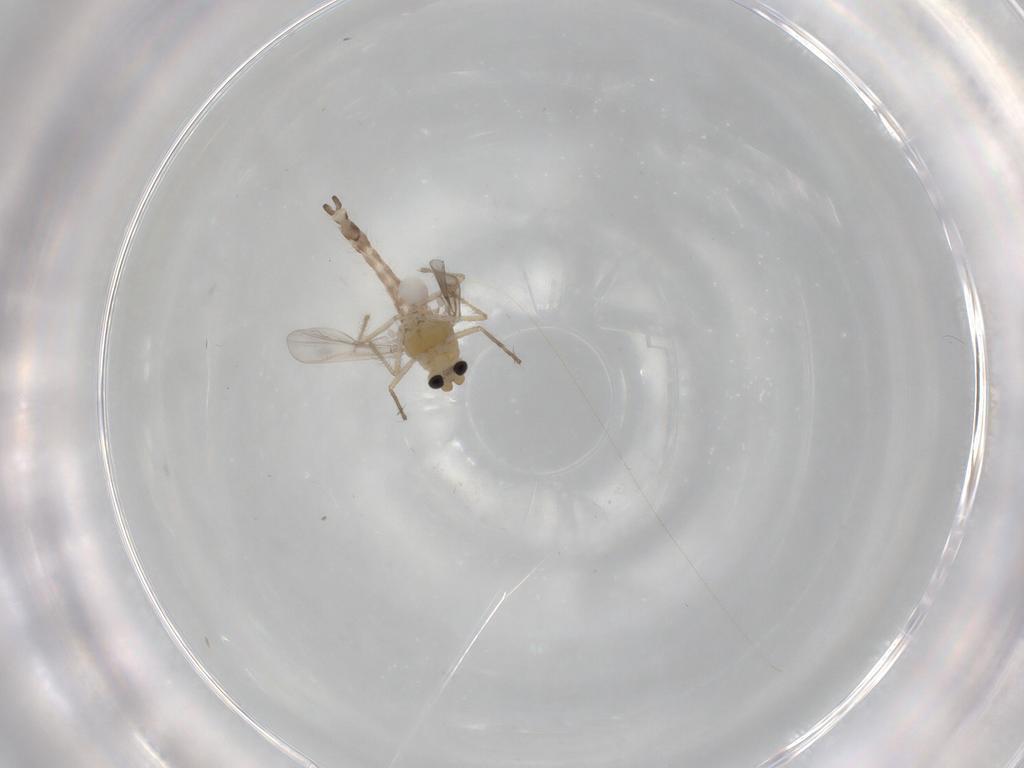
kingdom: Animalia
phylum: Arthropoda
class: Insecta
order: Diptera
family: Chironomidae
